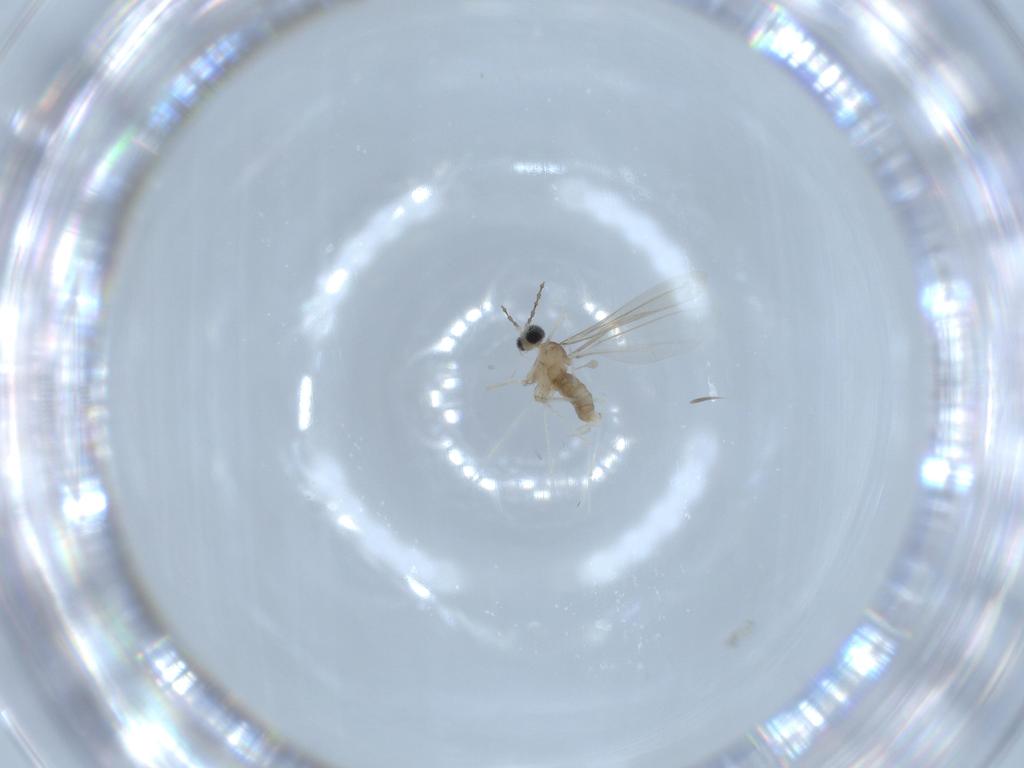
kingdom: Animalia
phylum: Arthropoda
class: Insecta
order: Diptera
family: Cecidomyiidae
